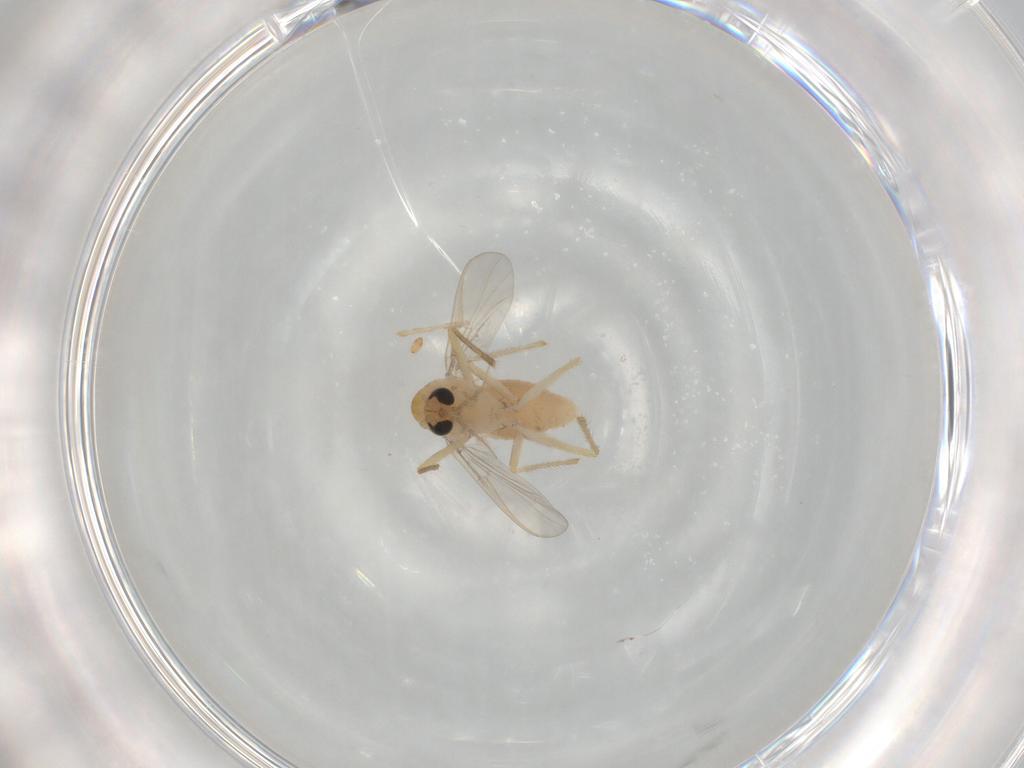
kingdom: Animalia
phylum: Arthropoda
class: Insecta
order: Diptera
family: Chironomidae
